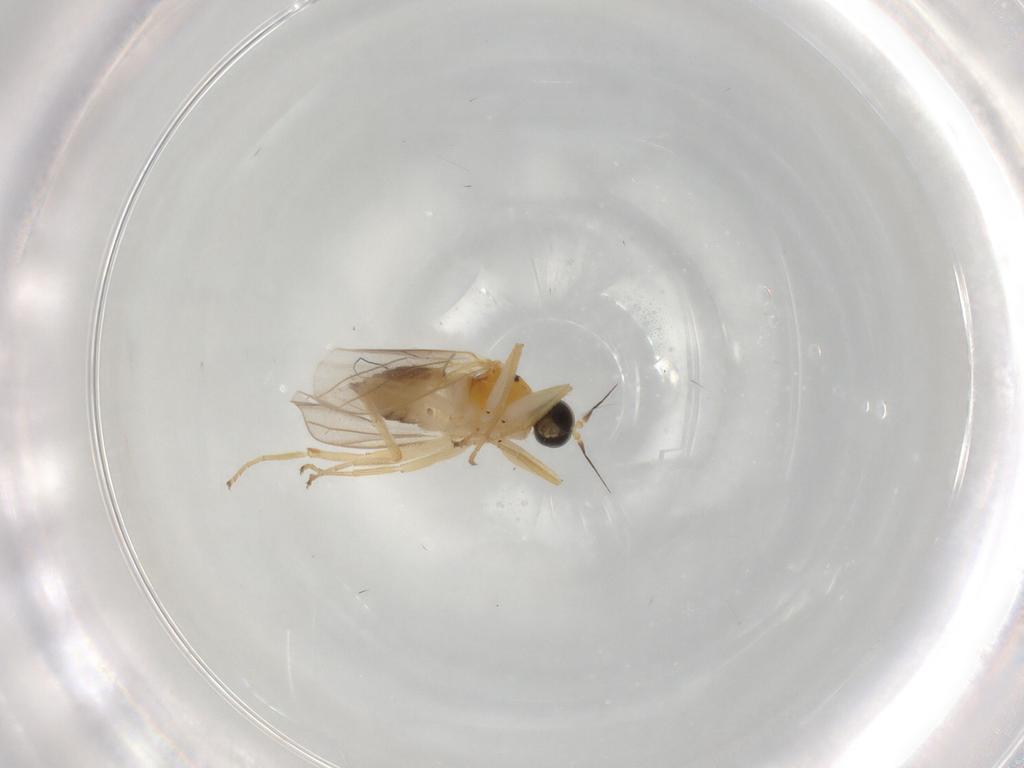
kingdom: Animalia
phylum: Arthropoda
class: Insecta
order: Diptera
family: Hybotidae
